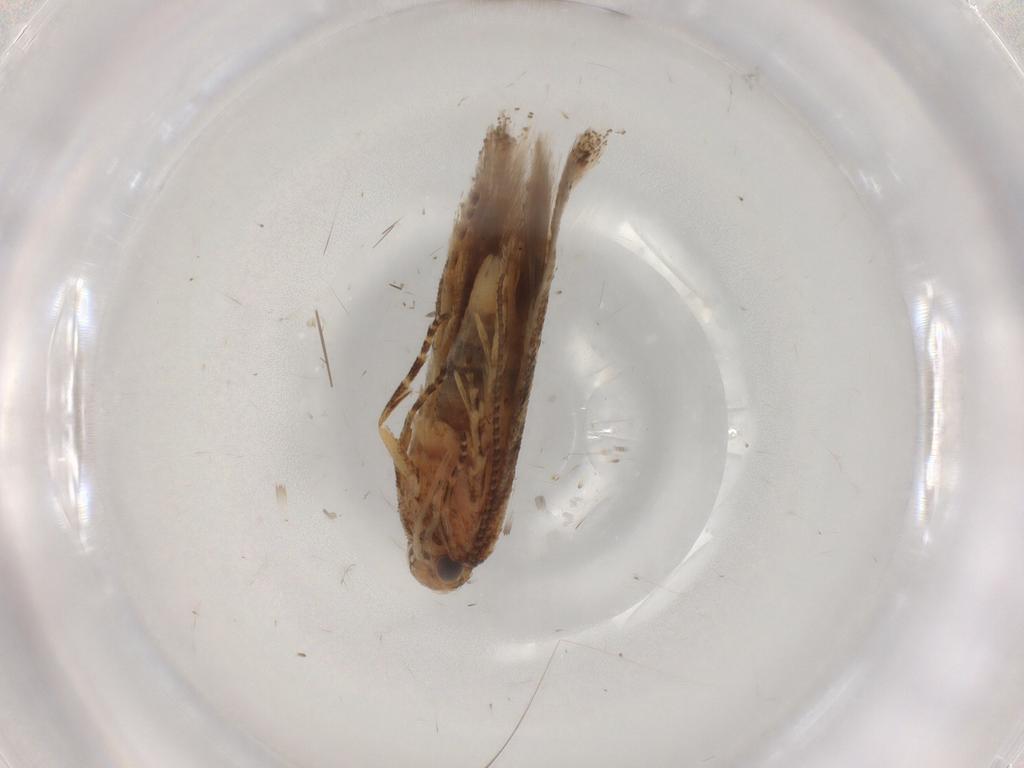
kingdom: Animalia
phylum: Arthropoda
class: Insecta
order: Lepidoptera
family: Gelechiidae
